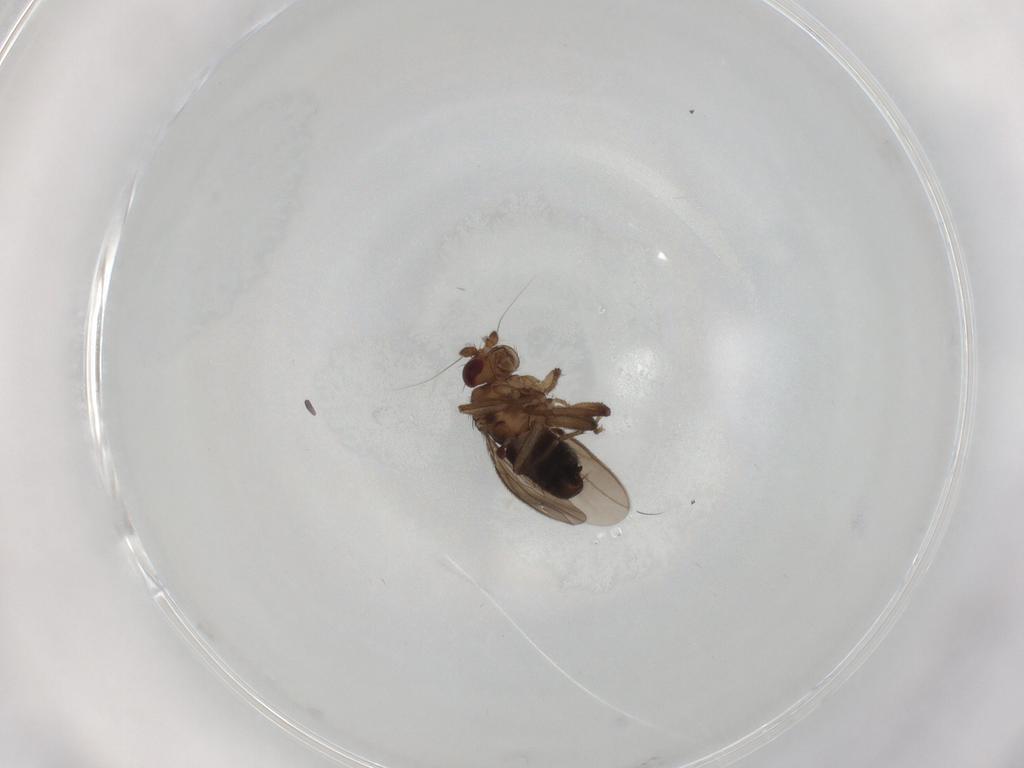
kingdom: Animalia
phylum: Arthropoda
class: Insecta
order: Diptera
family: Sphaeroceridae
